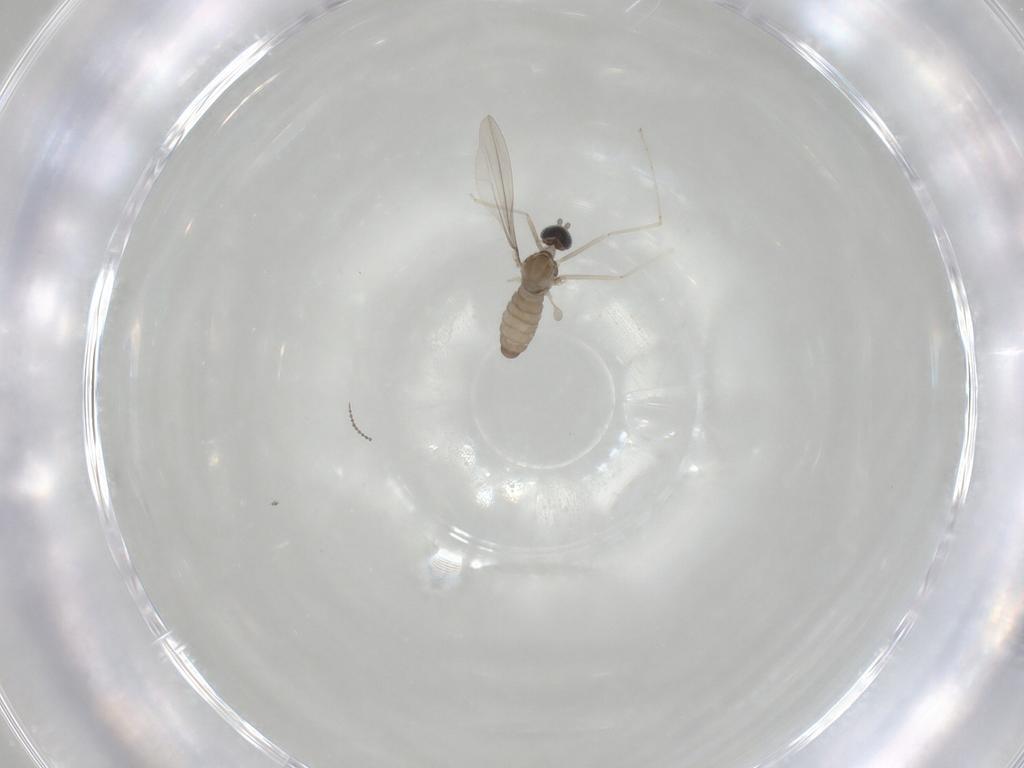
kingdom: Animalia
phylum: Arthropoda
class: Insecta
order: Diptera
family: Cecidomyiidae
